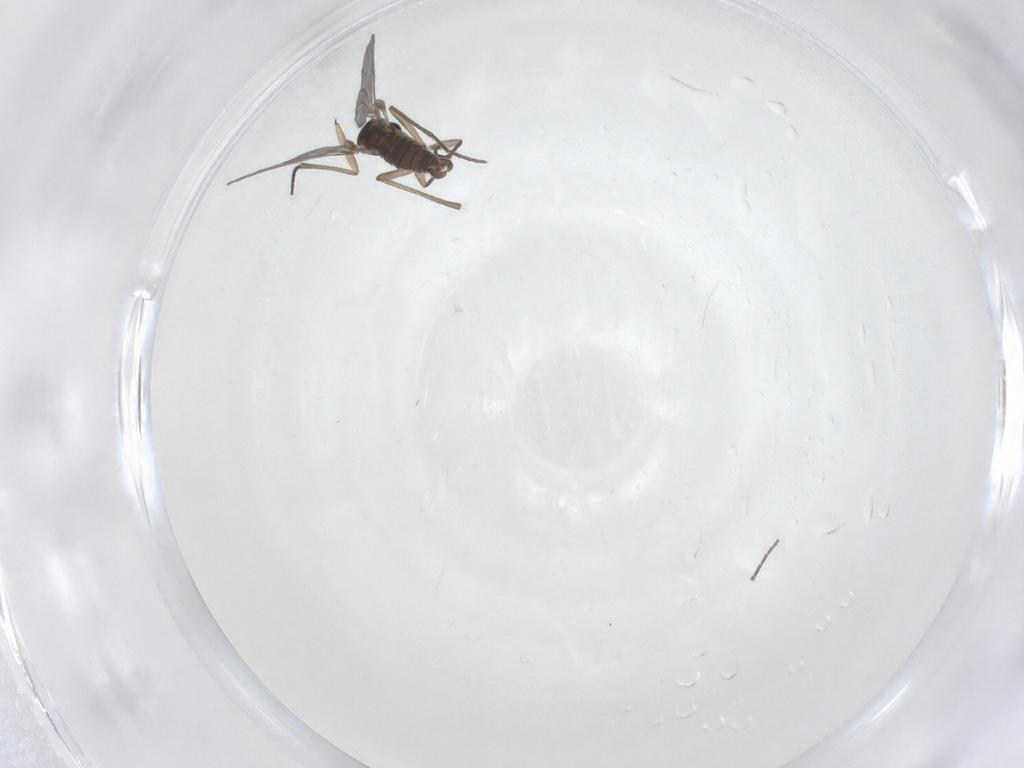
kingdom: Animalia
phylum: Arthropoda
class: Insecta
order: Diptera
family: Sciaridae
